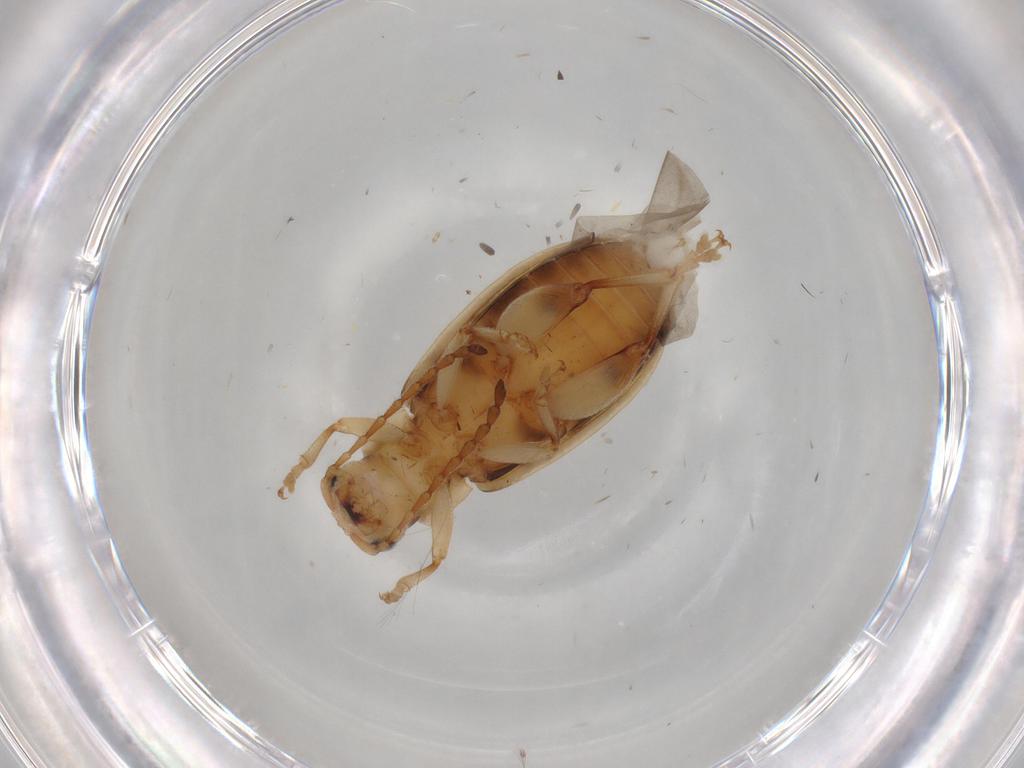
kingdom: Animalia
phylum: Arthropoda
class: Insecta
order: Coleoptera
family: Chrysomelidae
